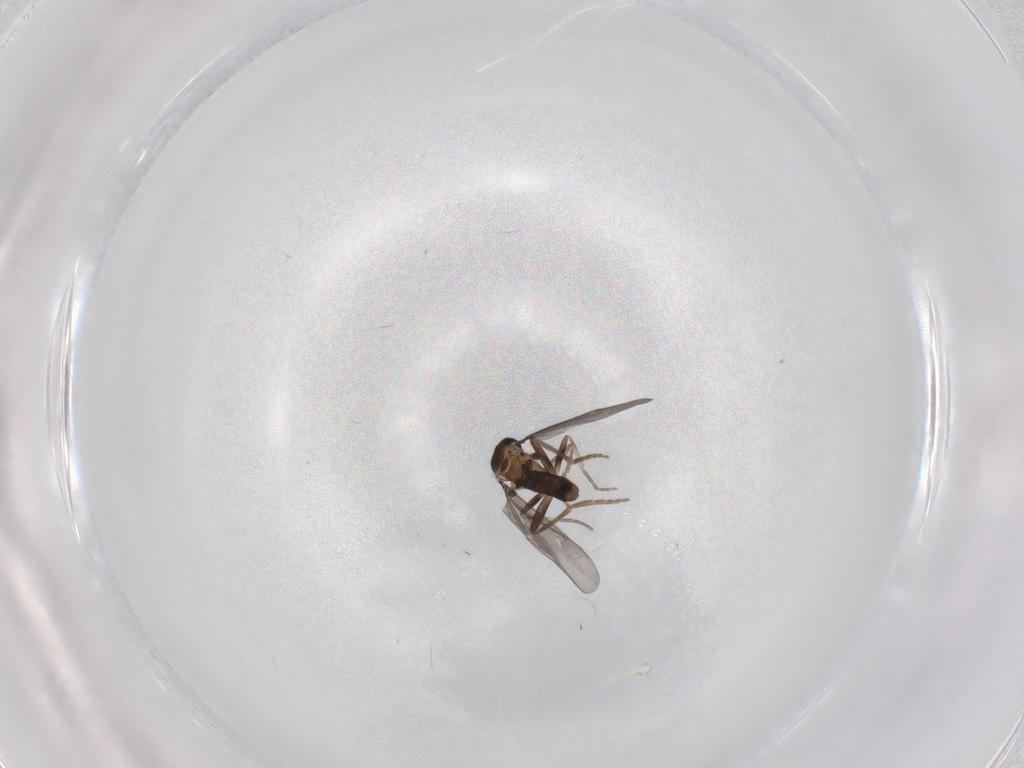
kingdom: Animalia
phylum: Arthropoda
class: Insecta
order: Diptera
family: Phoridae
